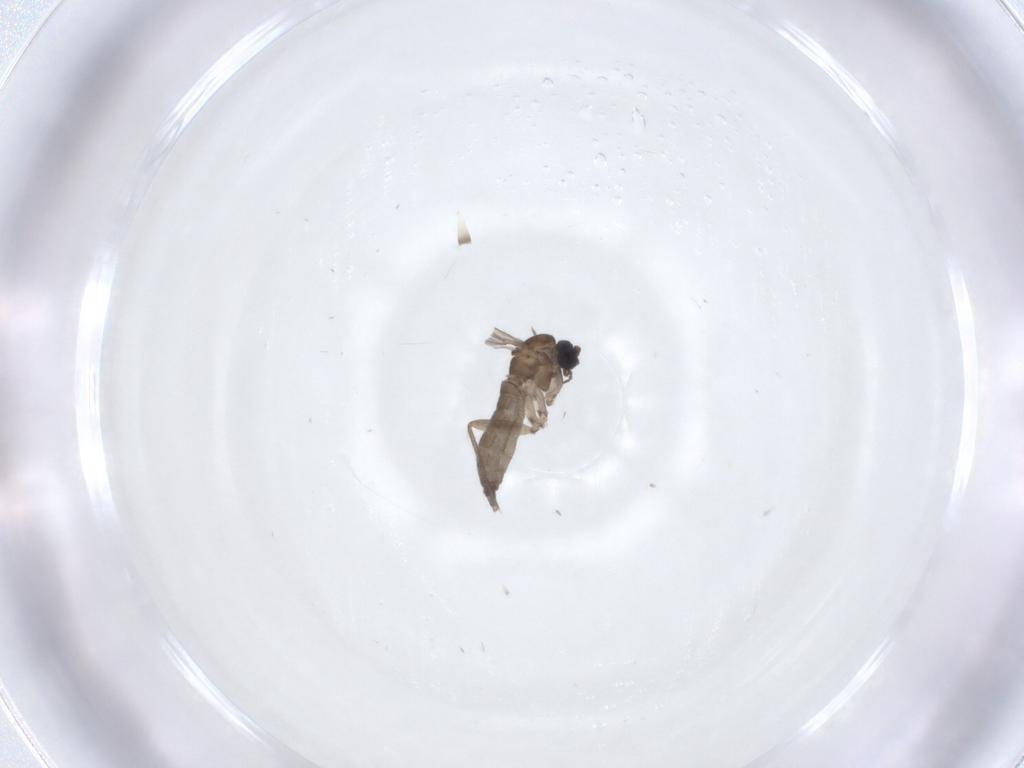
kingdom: Animalia
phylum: Arthropoda
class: Insecta
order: Diptera
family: Sciaridae
